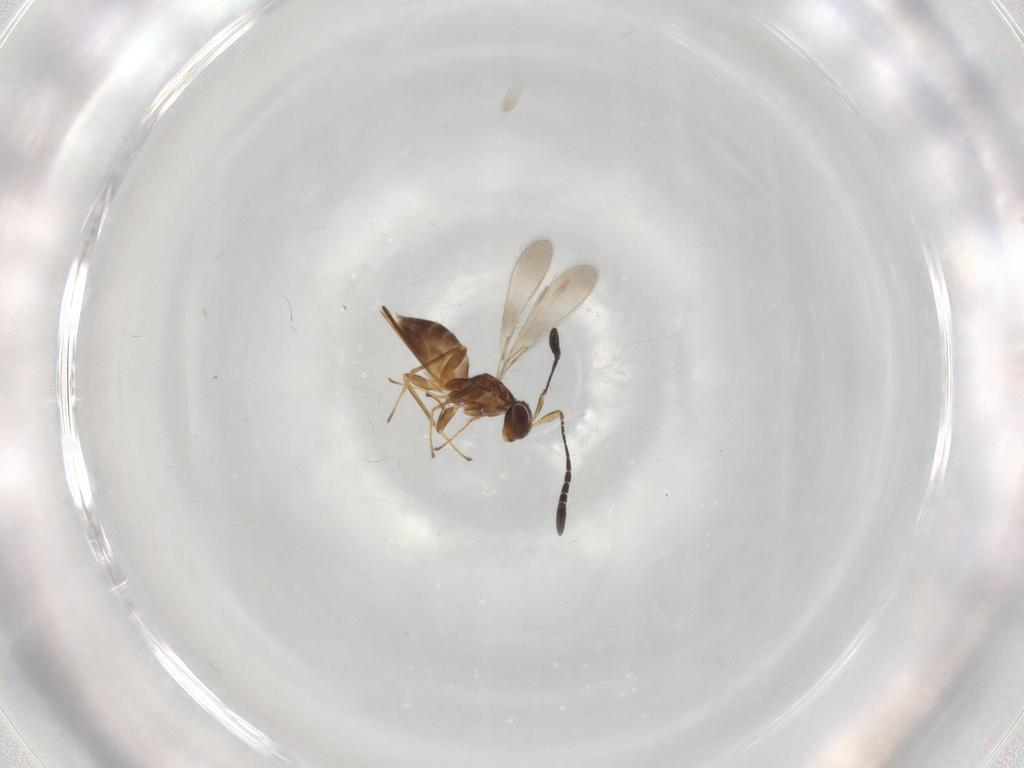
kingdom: Animalia
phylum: Arthropoda
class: Insecta
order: Hymenoptera
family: Mymaridae
